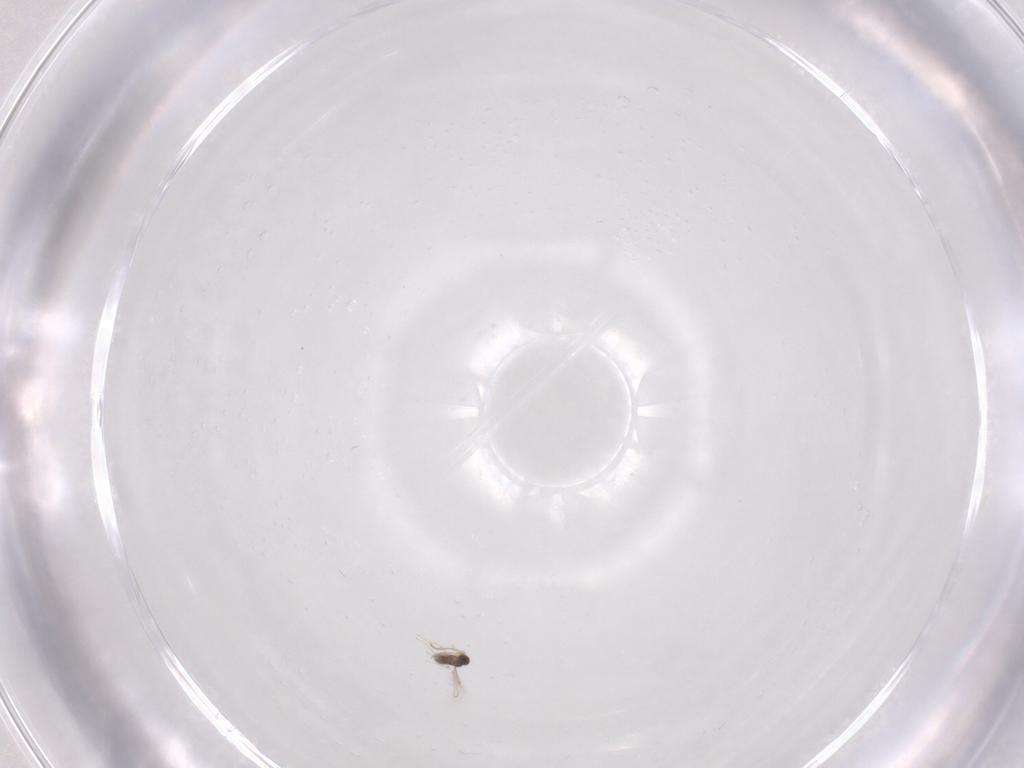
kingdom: Animalia
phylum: Arthropoda
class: Insecta
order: Hymenoptera
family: Mymaridae
